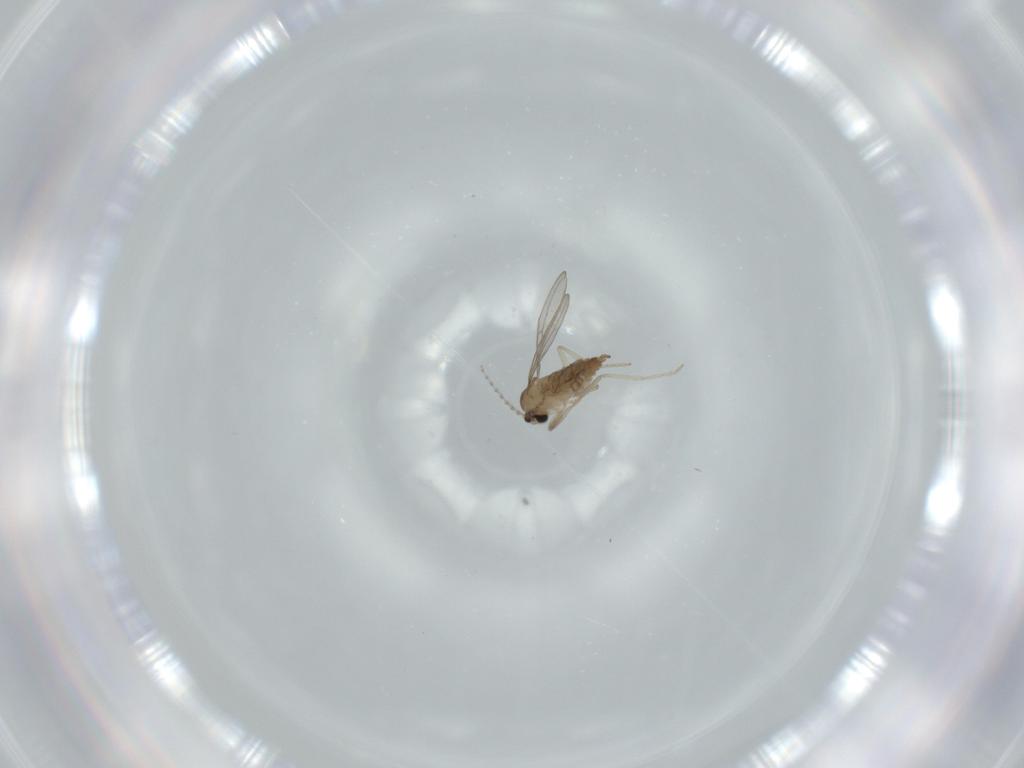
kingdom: Animalia
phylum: Arthropoda
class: Insecta
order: Diptera
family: Cecidomyiidae
